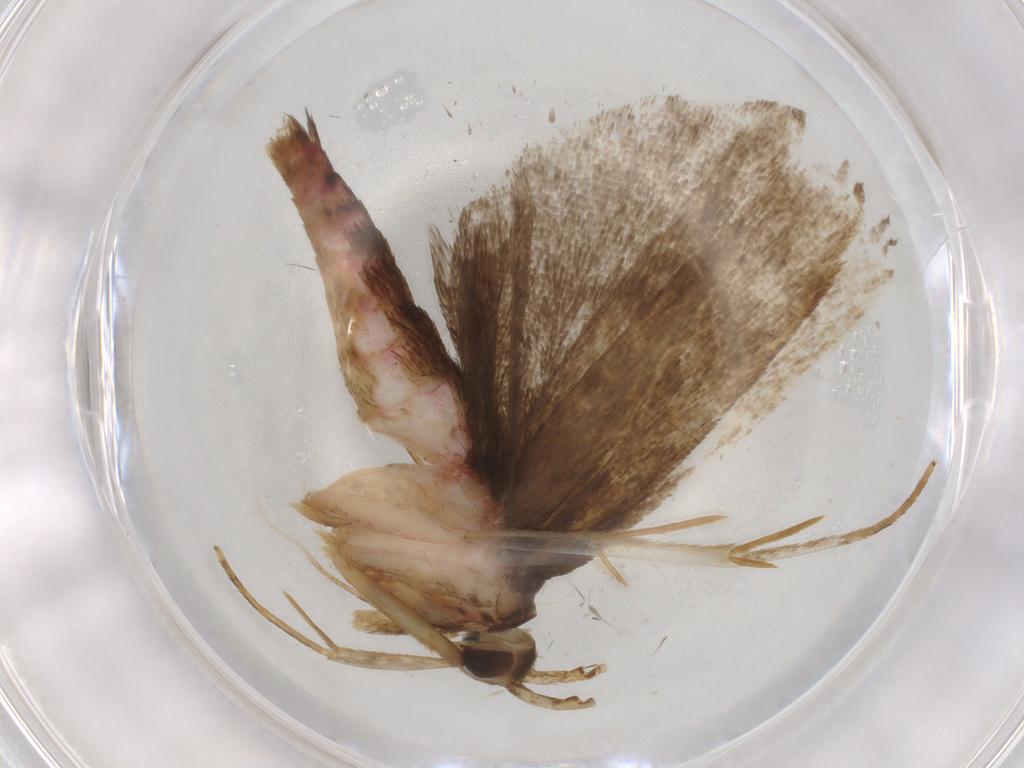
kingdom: Animalia
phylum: Arthropoda
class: Insecta
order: Lepidoptera
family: Autostichidae
